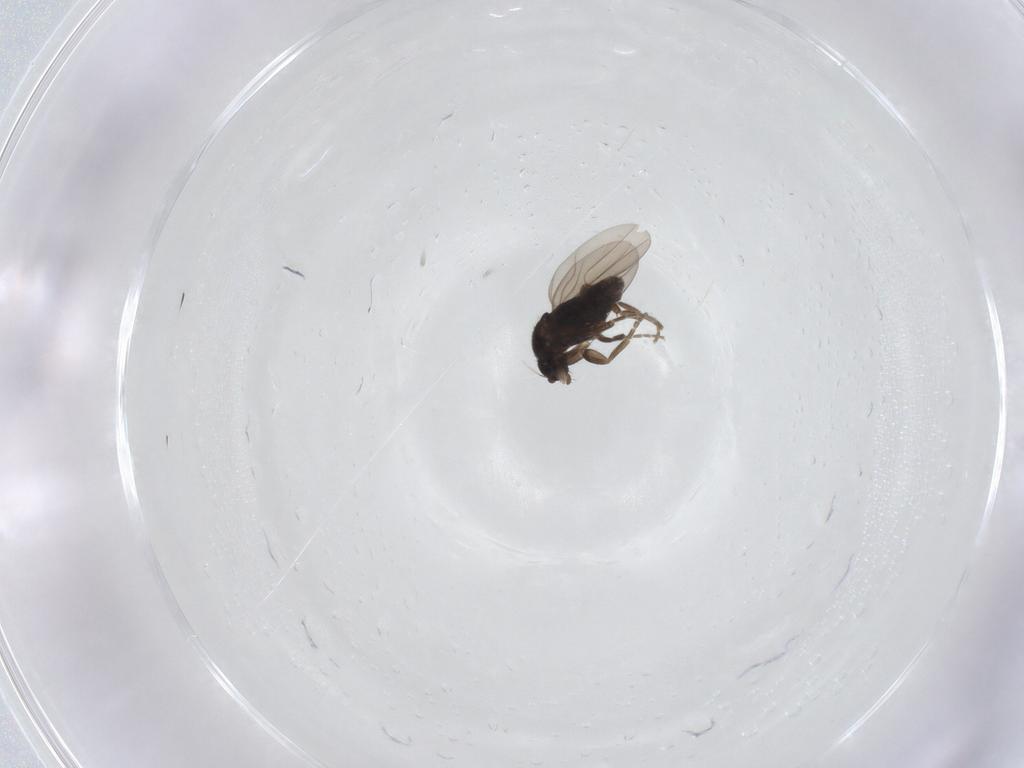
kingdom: Animalia
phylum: Arthropoda
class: Insecta
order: Diptera
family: Phoridae
